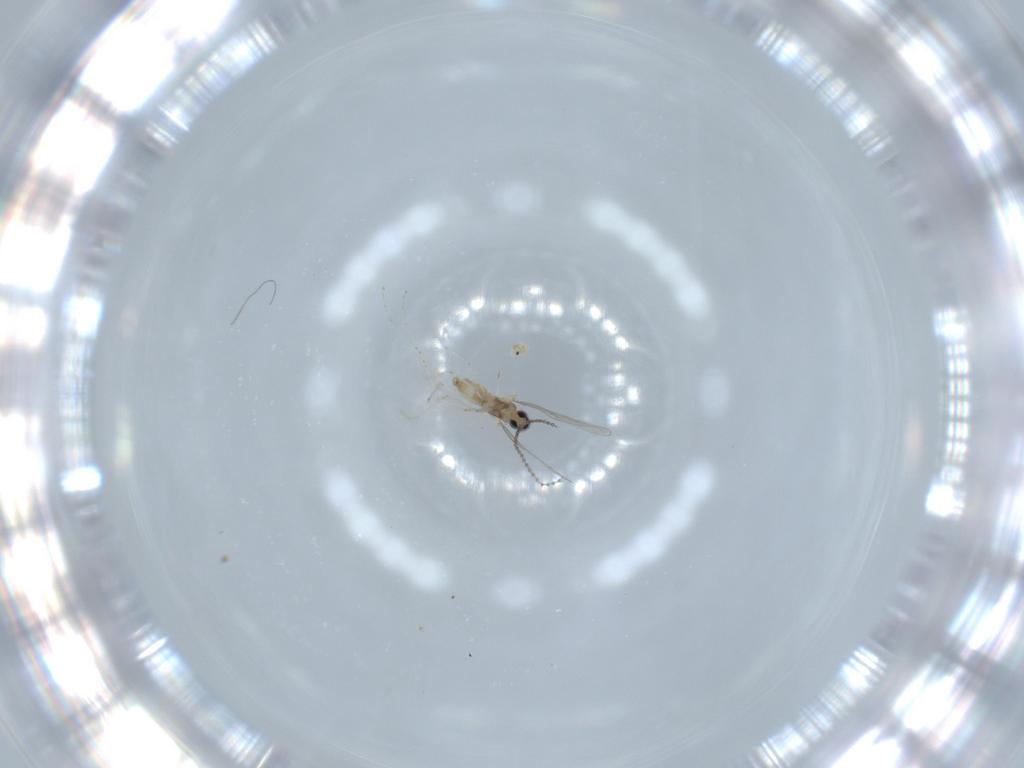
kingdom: Animalia
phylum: Arthropoda
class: Insecta
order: Diptera
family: Cecidomyiidae
